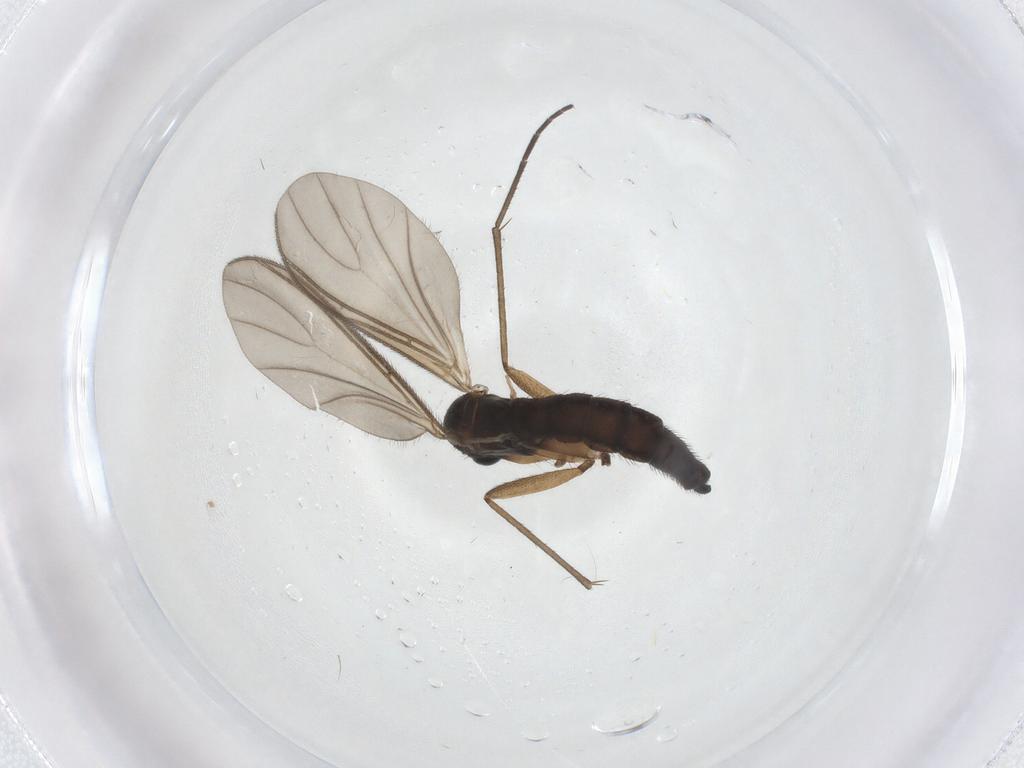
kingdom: Animalia
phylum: Arthropoda
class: Insecta
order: Diptera
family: Sciaridae
